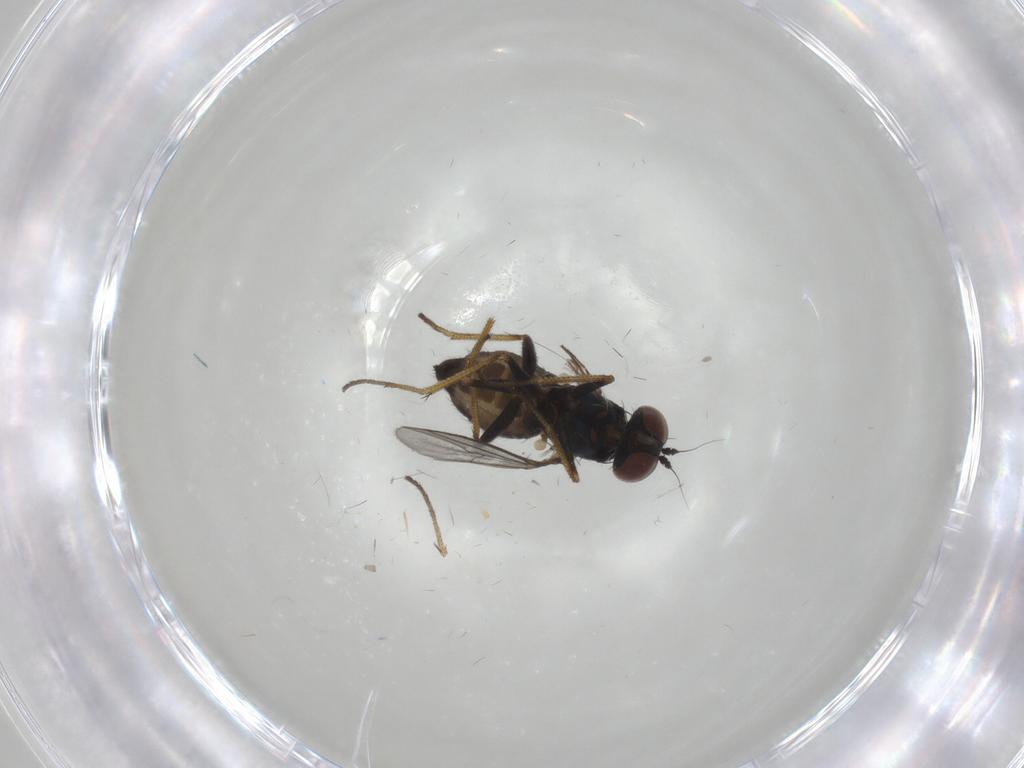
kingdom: Animalia
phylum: Arthropoda
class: Insecta
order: Diptera
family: Dolichopodidae
